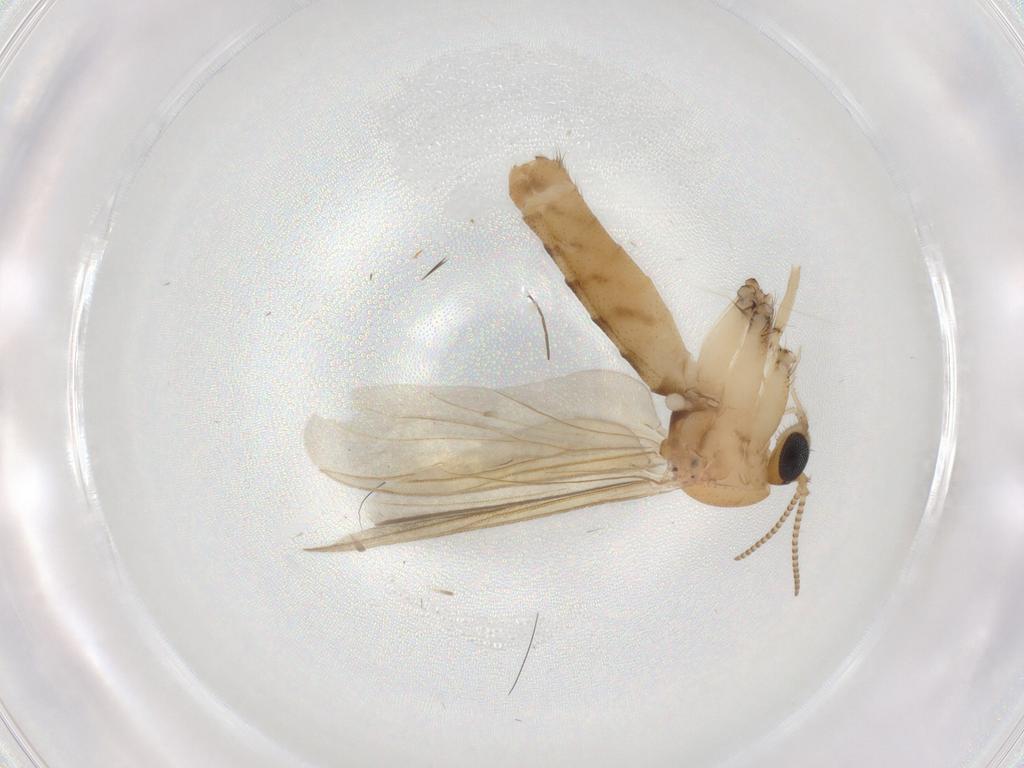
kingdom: Animalia
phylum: Arthropoda
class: Insecta
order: Diptera
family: Mycetophilidae
